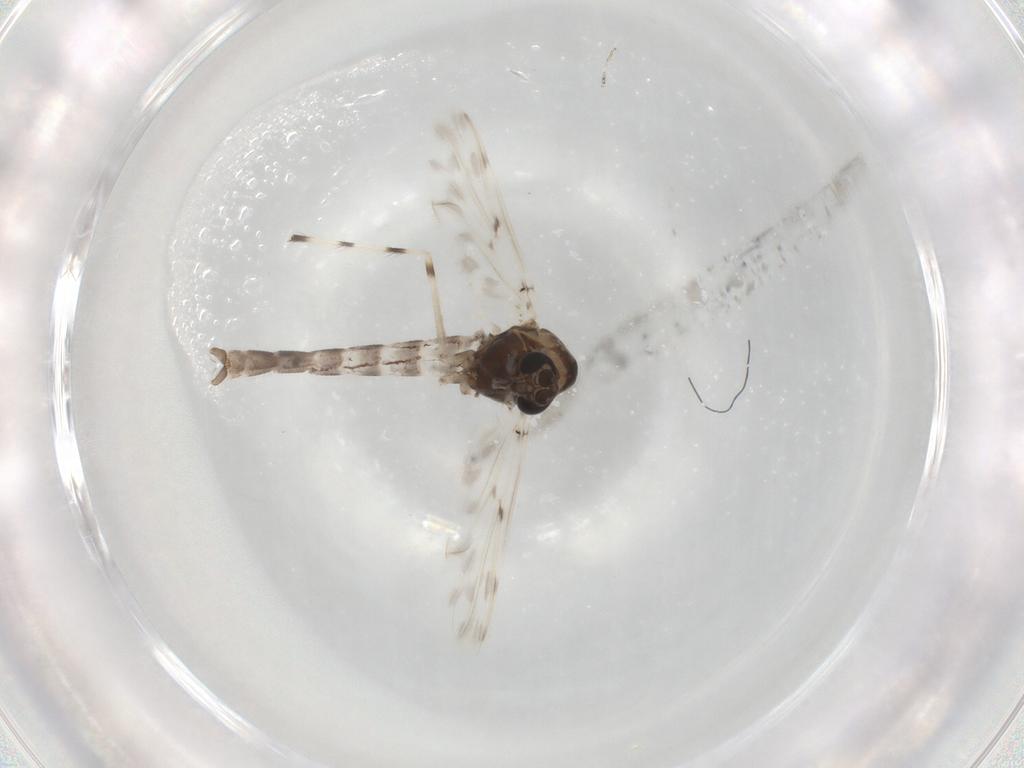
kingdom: Animalia
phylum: Arthropoda
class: Insecta
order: Diptera
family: Chironomidae
